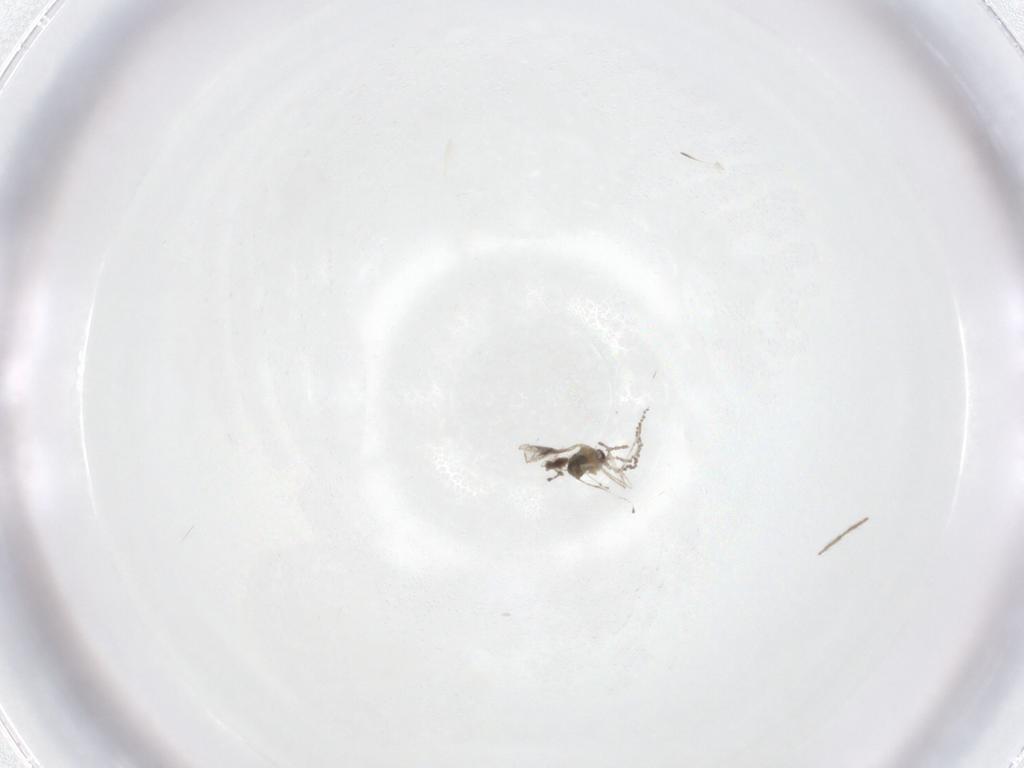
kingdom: Animalia
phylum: Arthropoda
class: Insecta
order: Diptera
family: Chironomidae
